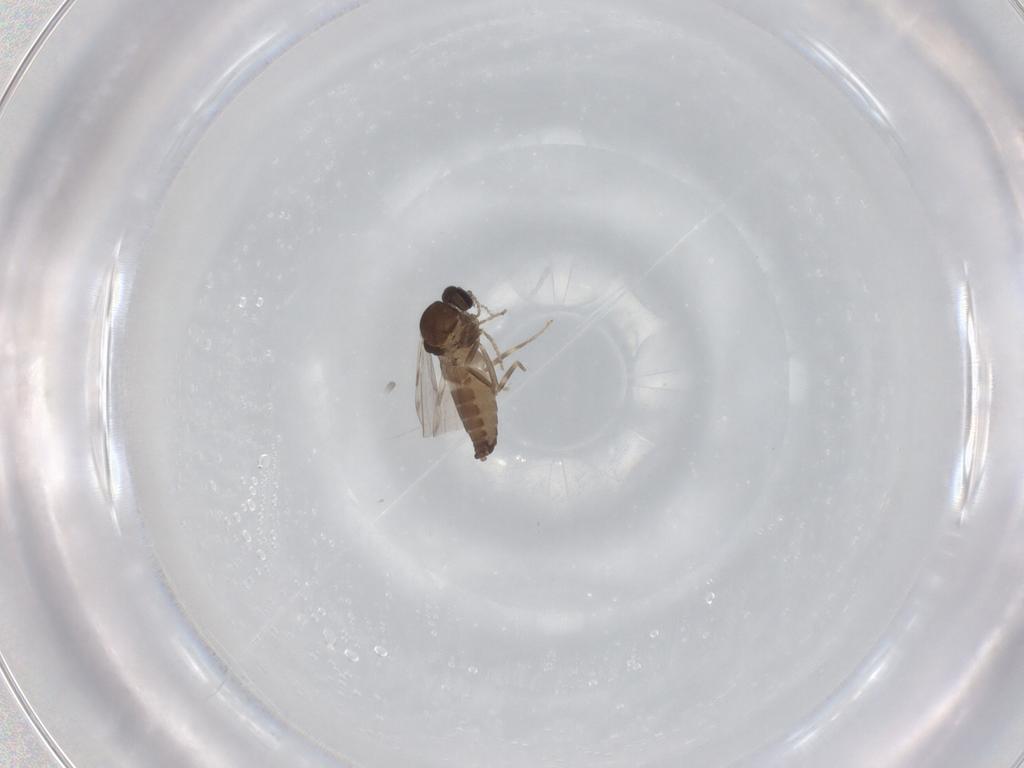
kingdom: Animalia
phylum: Arthropoda
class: Insecta
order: Diptera
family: Ceratopogonidae
